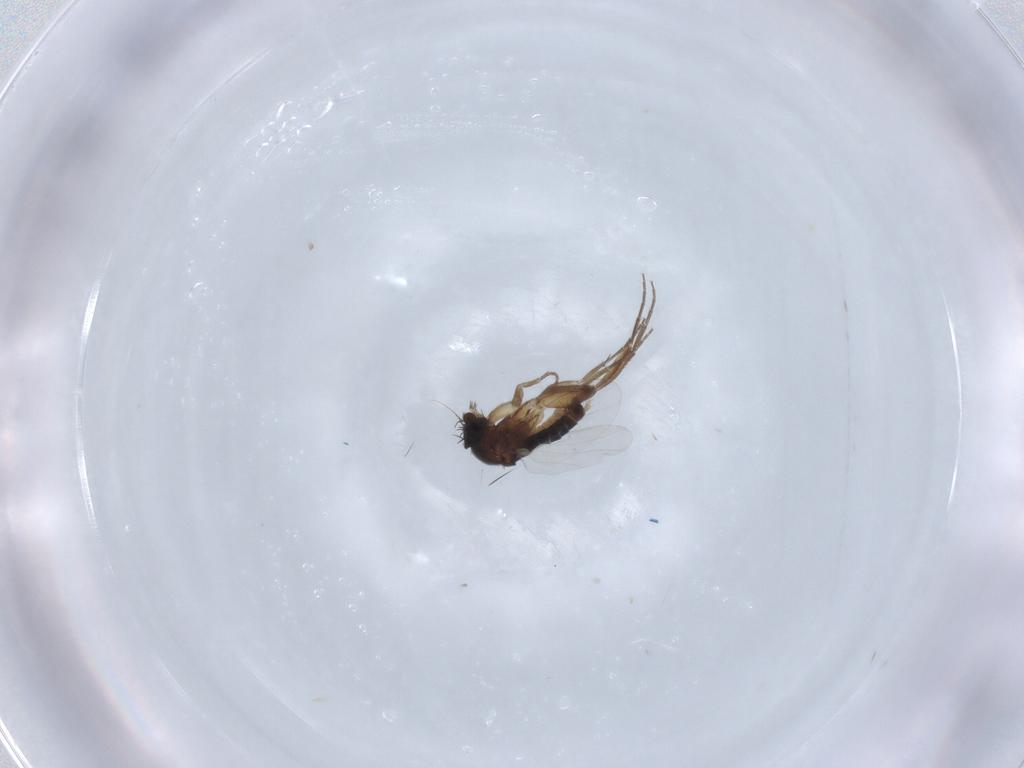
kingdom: Animalia
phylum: Arthropoda
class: Insecta
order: Diptera
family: Phoridae
